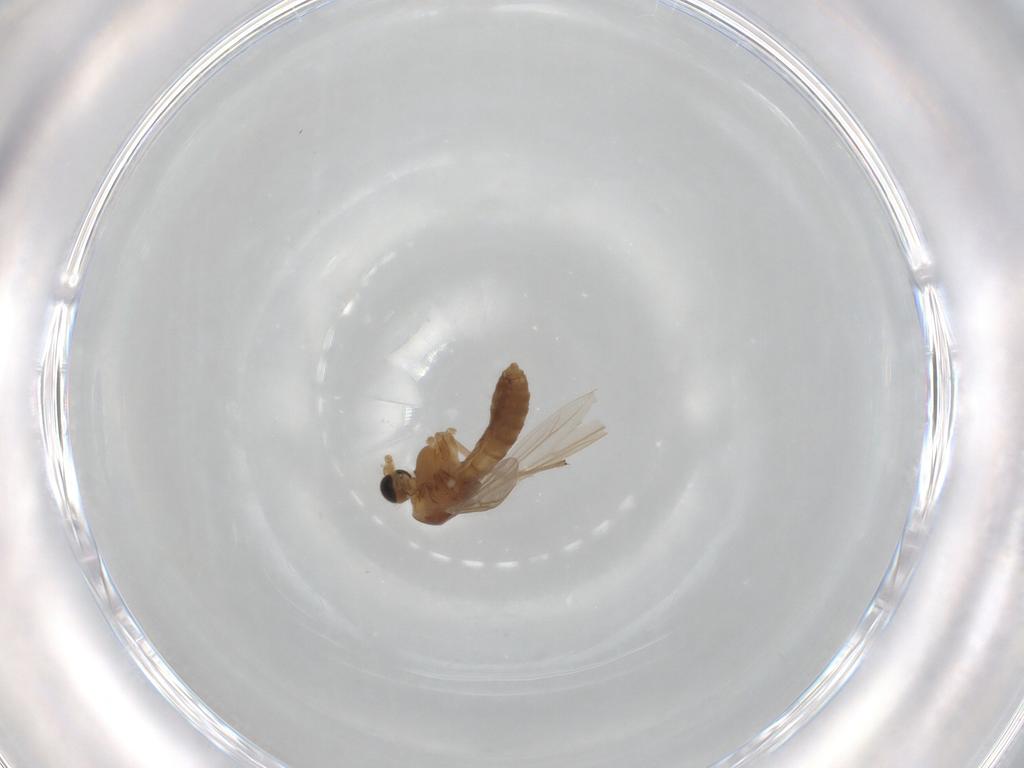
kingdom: Animalia
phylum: Arthropoda
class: Insecta
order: Diptera
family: Chironomidae
